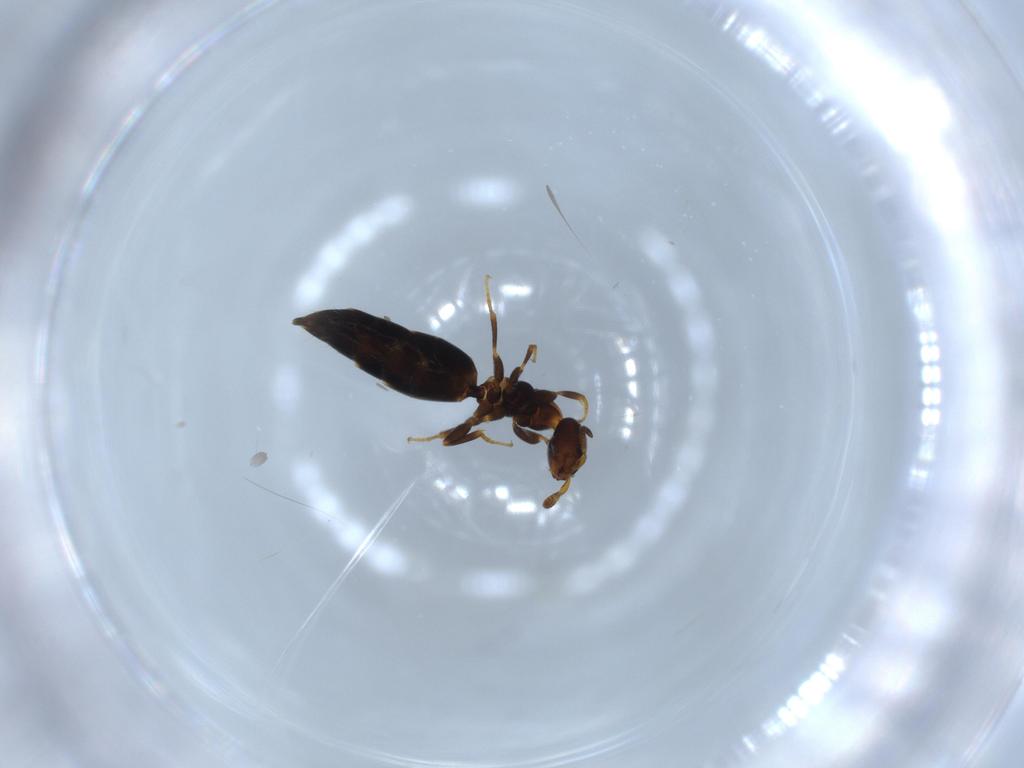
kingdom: Animalia
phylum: Arthropoda
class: Insecta
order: Hymenoptera
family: Bethylidae
